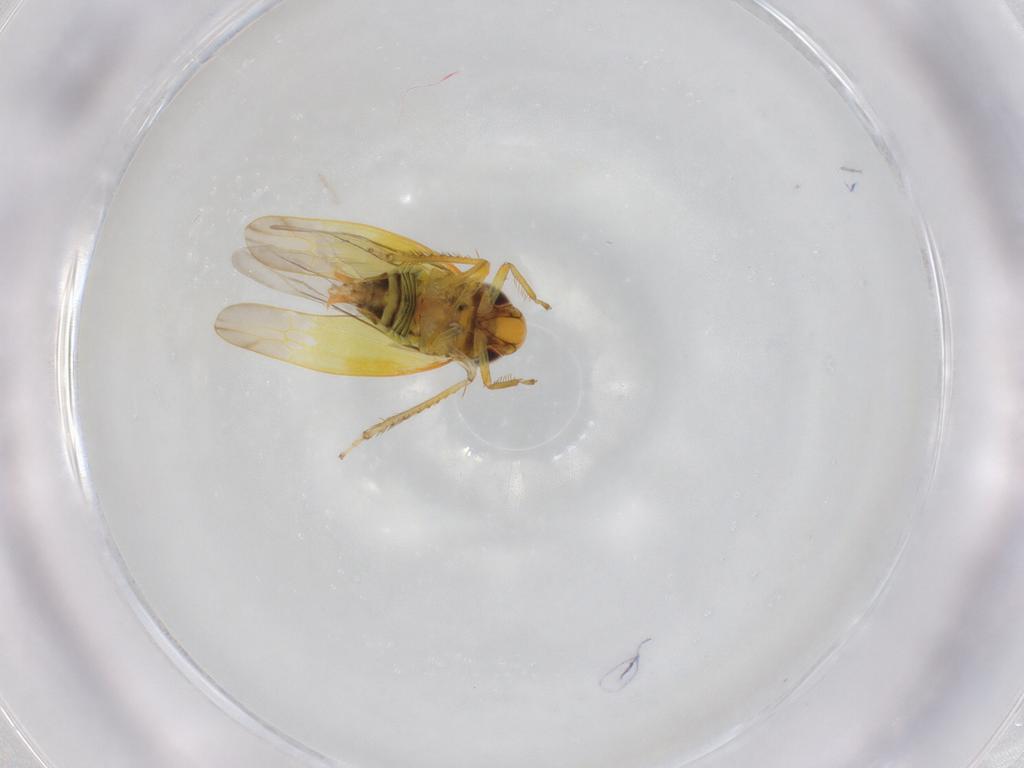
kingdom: Animalia
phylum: Arthropoda
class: Insecta
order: Hemiptera
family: Cicadellidae
